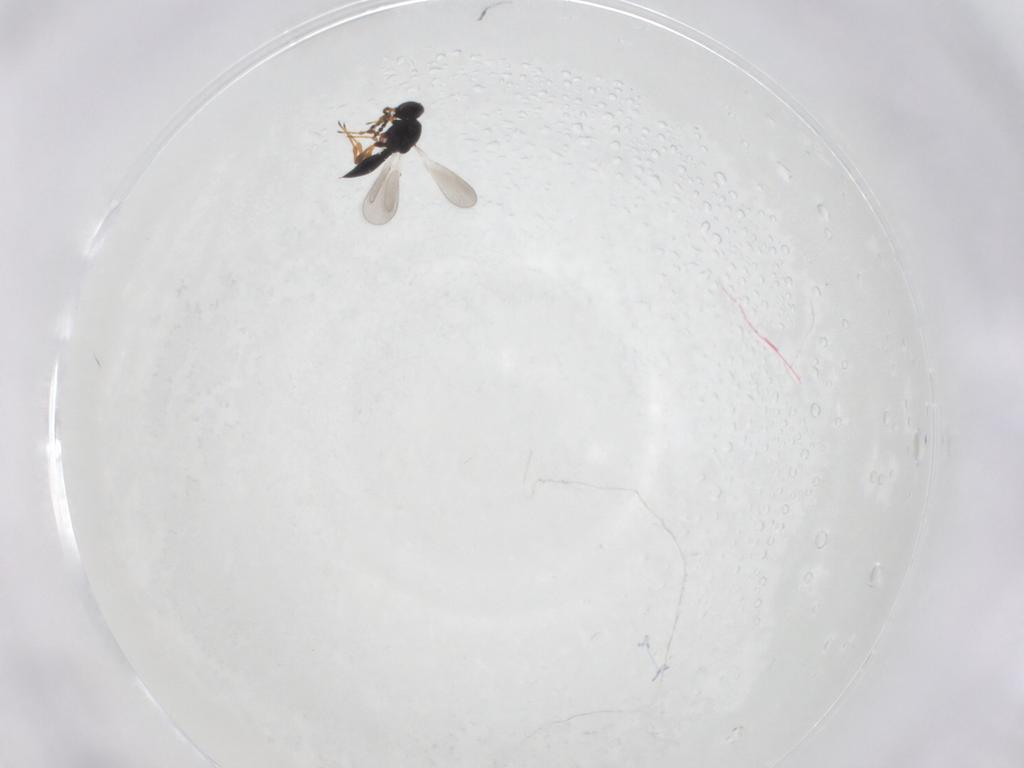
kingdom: Animalia
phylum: Arthropoda
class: Insecta
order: Hymenoptera
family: Platygastridae
